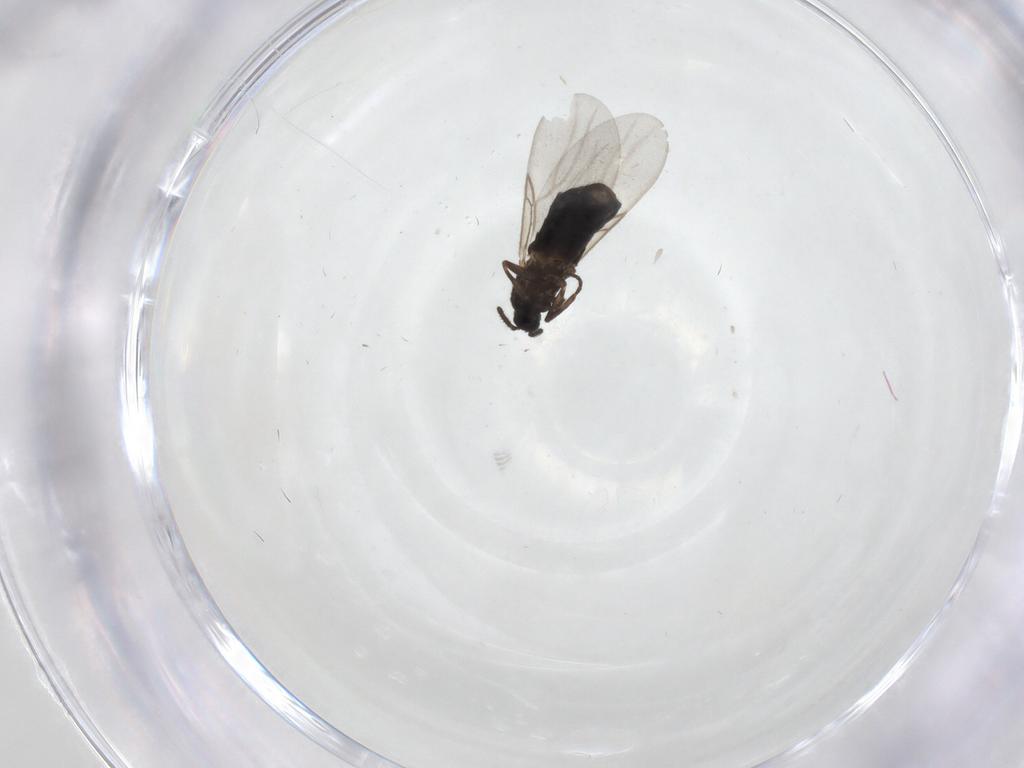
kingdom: Animalia
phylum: Arthropoda
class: Insecta
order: Diptera
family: Scatopsidae
